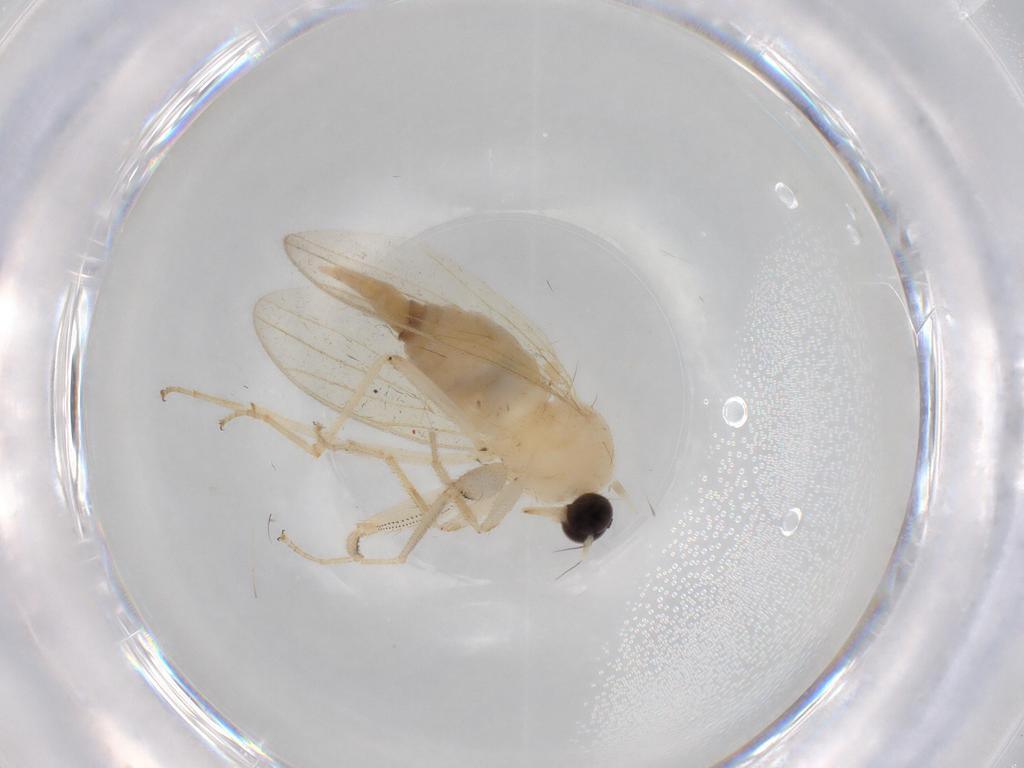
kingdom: Animalia
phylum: Arthropoda
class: Insecta
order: Diptera
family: Hybotidae
